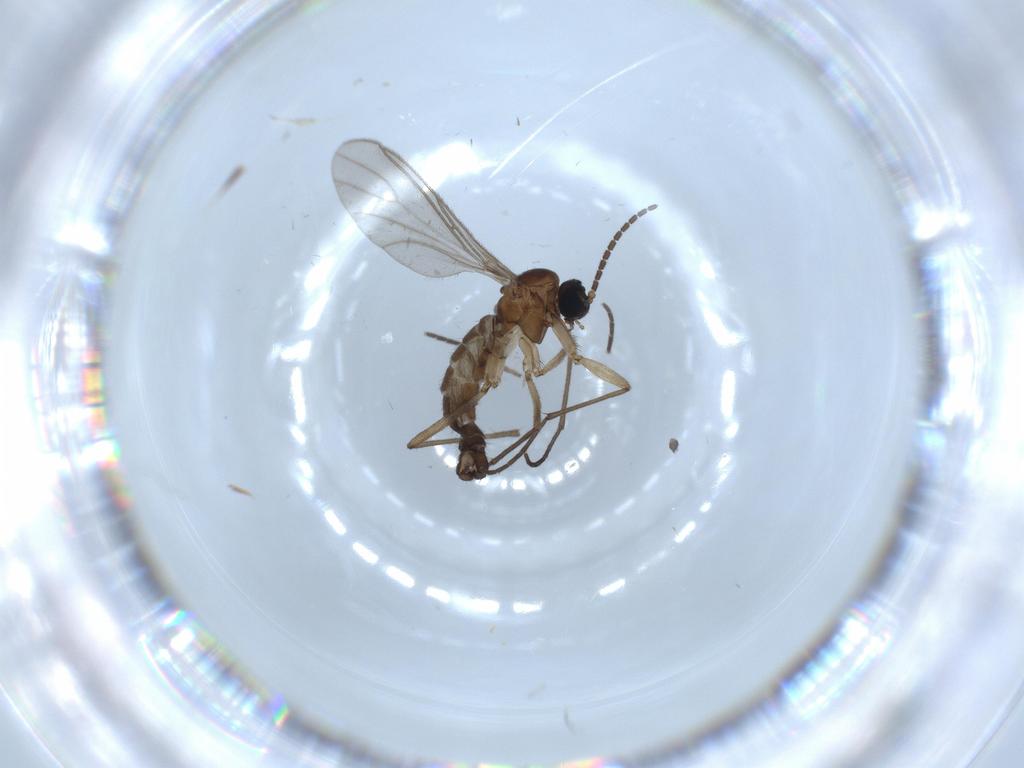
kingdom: Animalia
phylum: Arthropoda
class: Insecta
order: Diptera
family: Sciaridae
